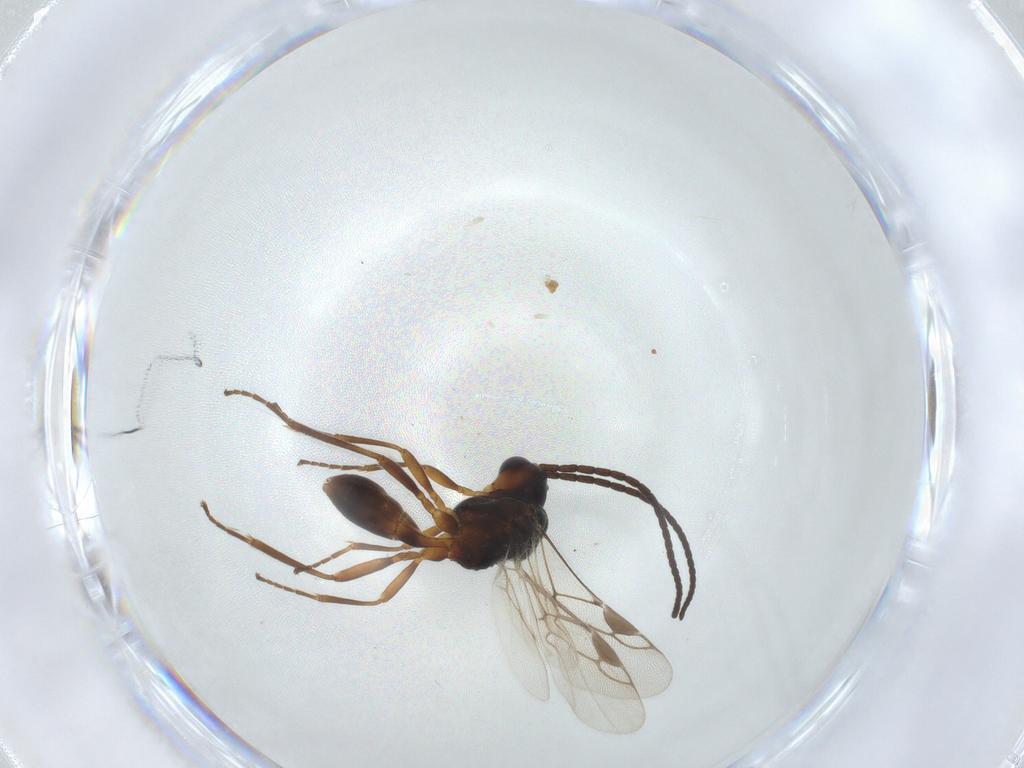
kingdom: Animalia
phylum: Arthropoda
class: Insecta
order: Hymenoptera
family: Braconidae
